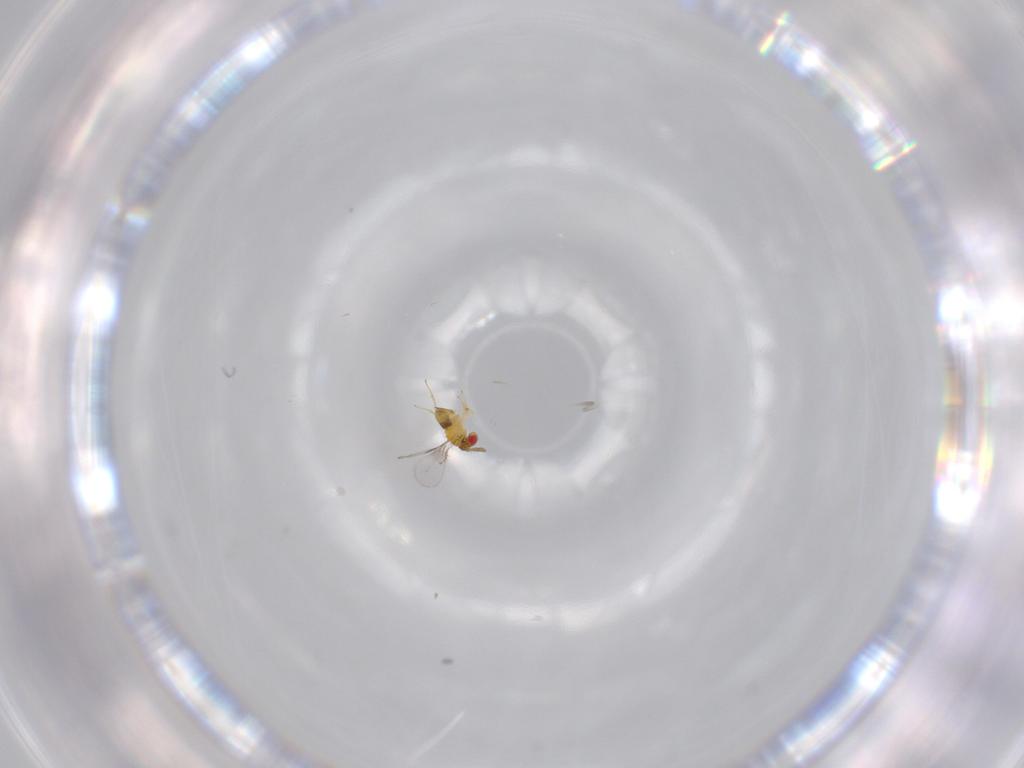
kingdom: Animalia
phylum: Arthropoda
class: Insecta
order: Hymenoptera
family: Trichogrammatidae
